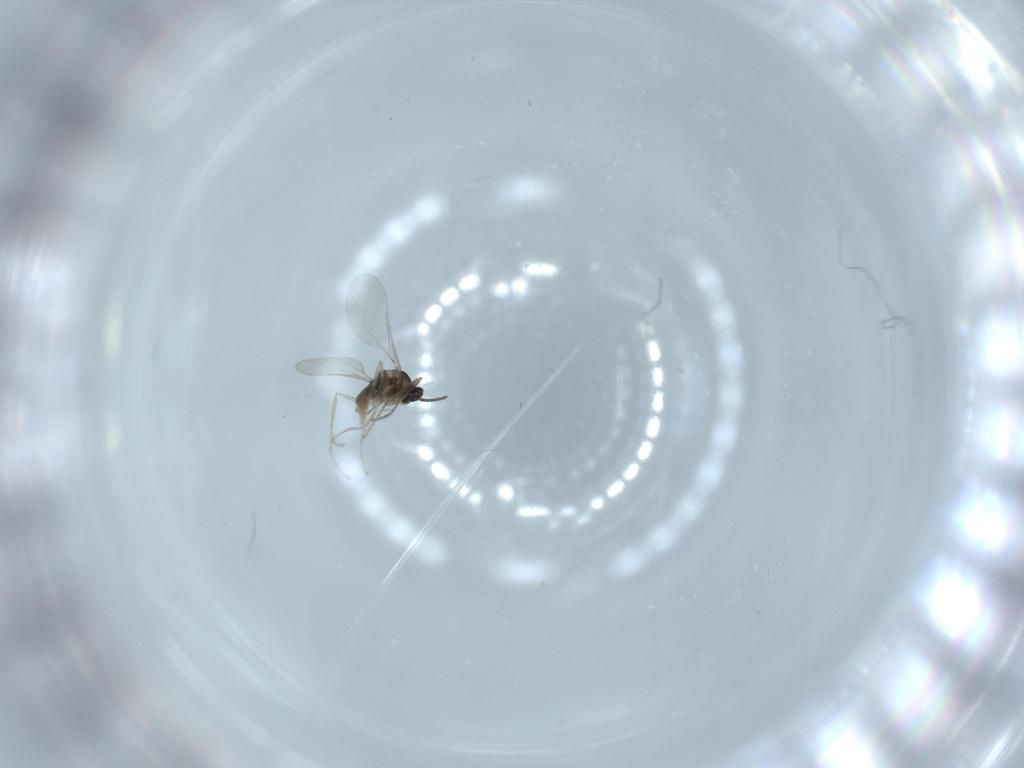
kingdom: Animalia
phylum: Arthropoda
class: Insecta
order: Diptera
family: Cecidomyiidae
